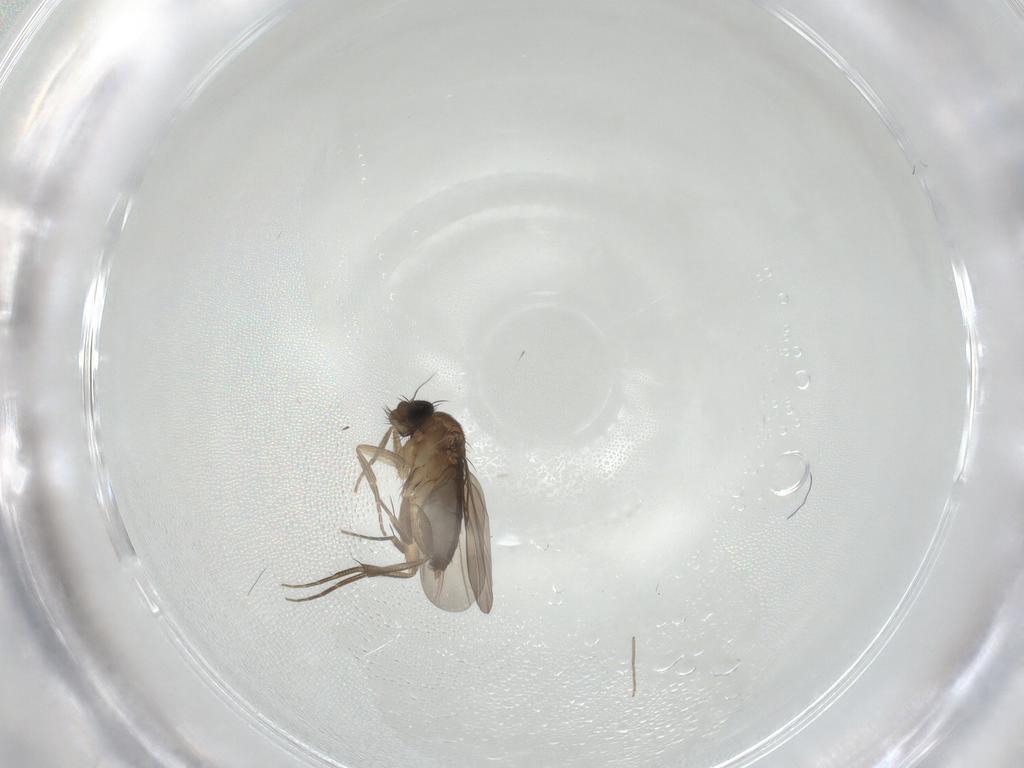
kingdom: Animalia
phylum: Arthropoda
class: Insecta
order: Diptera
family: Phoridae
